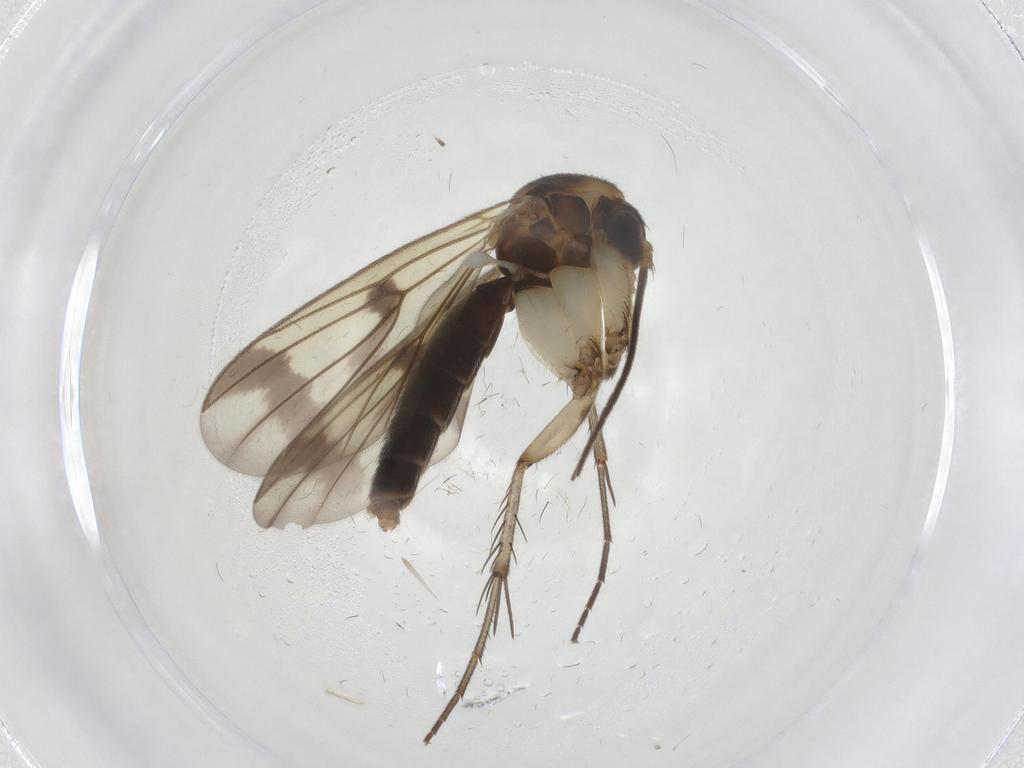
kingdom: Animalia
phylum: Arthropoda
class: Insecta
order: Diptera
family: Chironomidae
